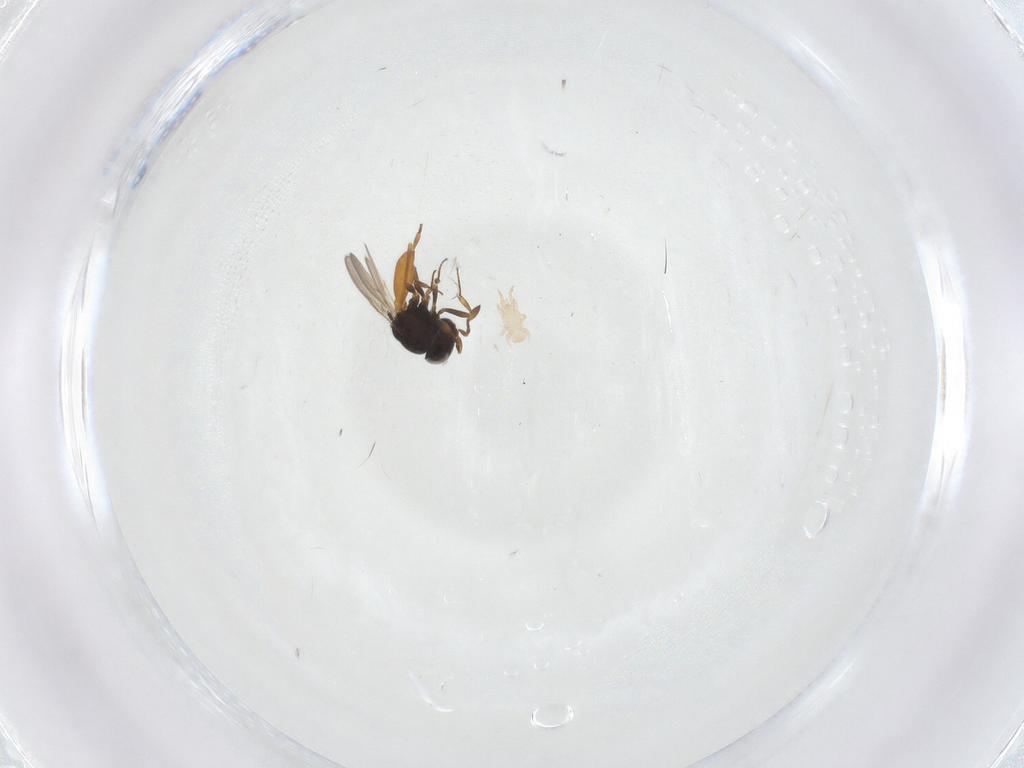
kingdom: Animalia
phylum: Arthropoda
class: Insecta
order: Hymenoptera
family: Scelionidae
